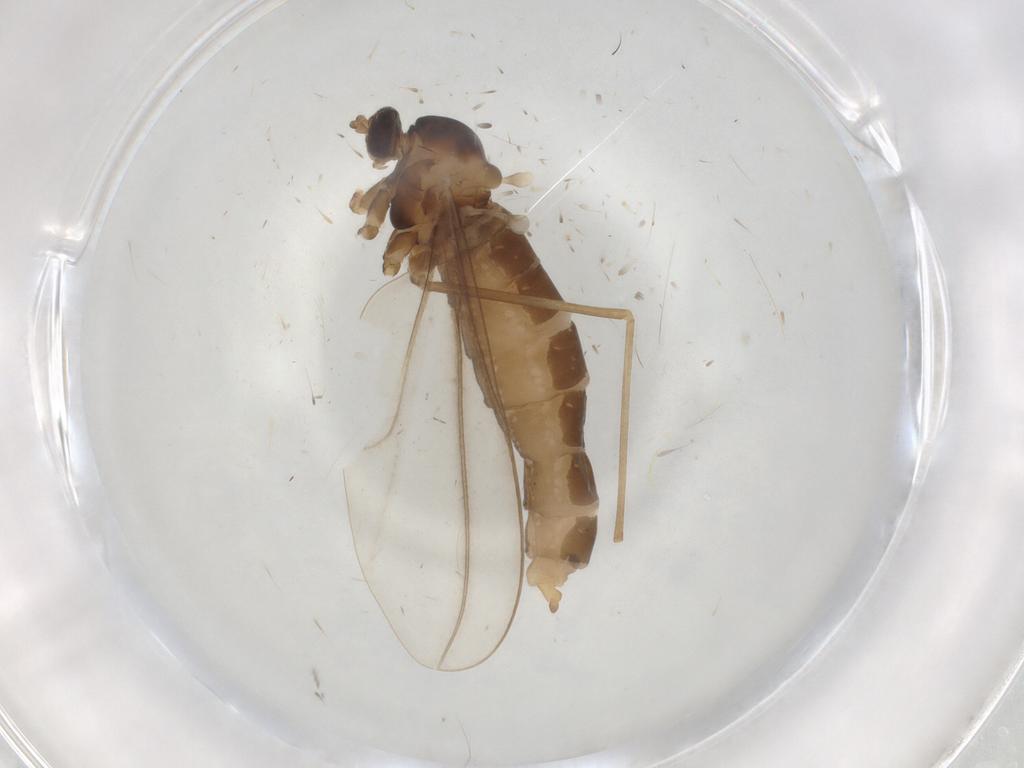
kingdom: Animalia
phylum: Arthropoda
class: Insecta
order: Diptera
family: Cecidomyiidae
